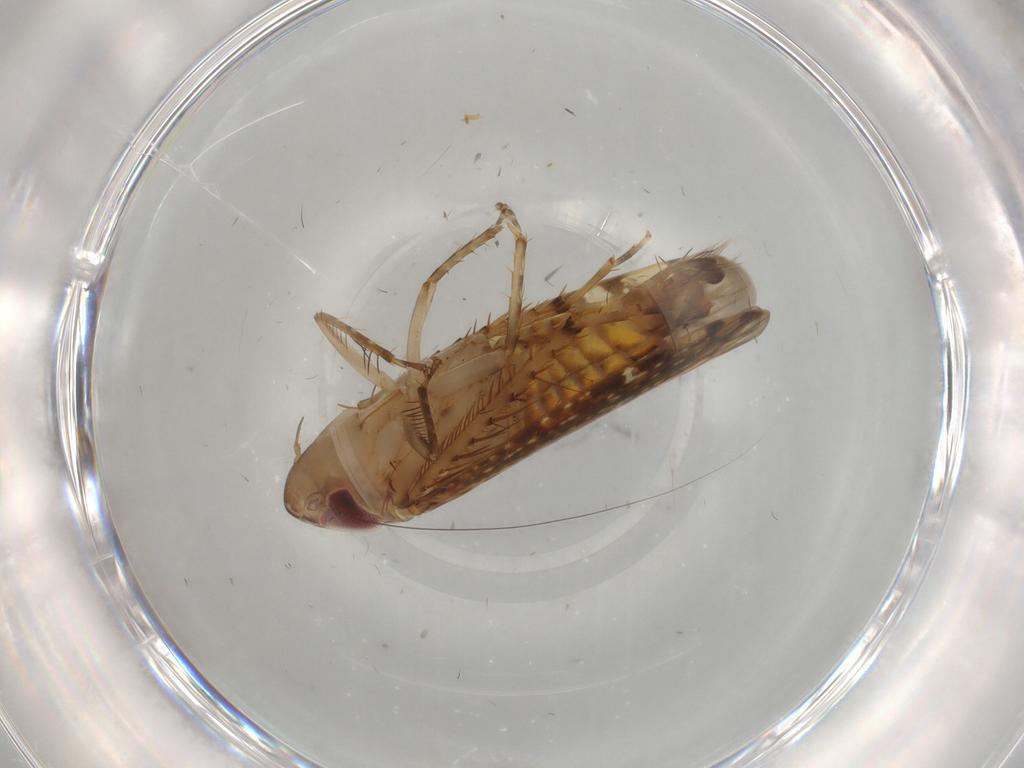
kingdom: Animalia
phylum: Arthropoda
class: Insecta
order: Hemiptera
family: Cicadellidae
